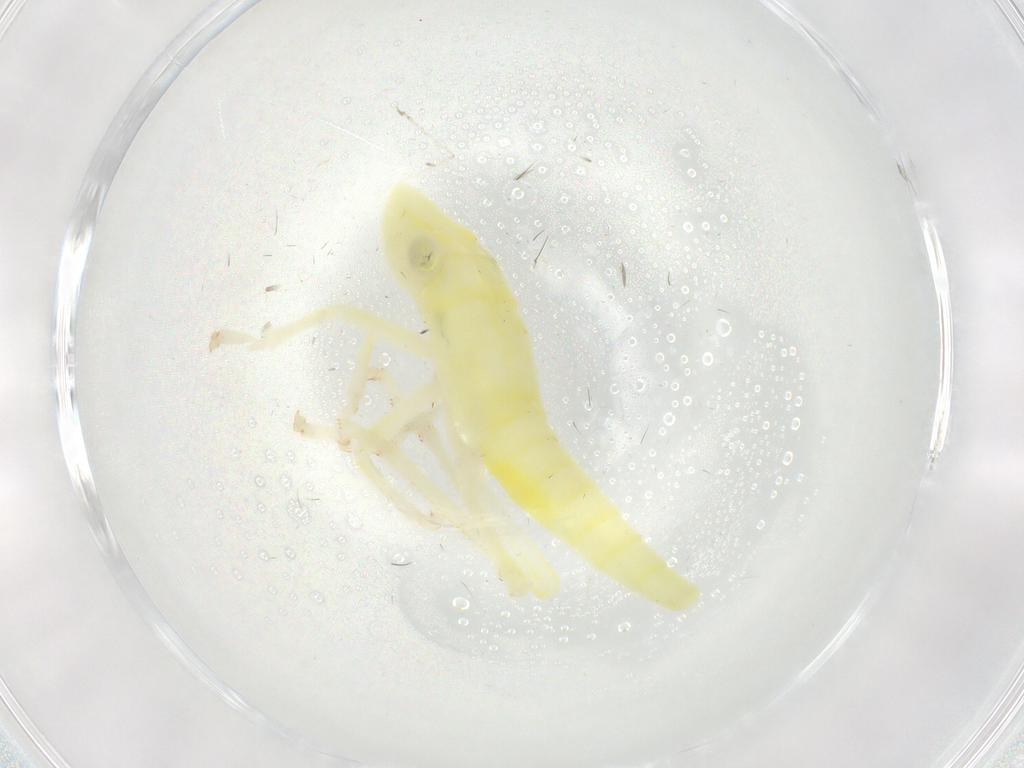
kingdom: Animalia
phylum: Arthropoda
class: Insecta
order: Hemiptera
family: Cicadellidae
